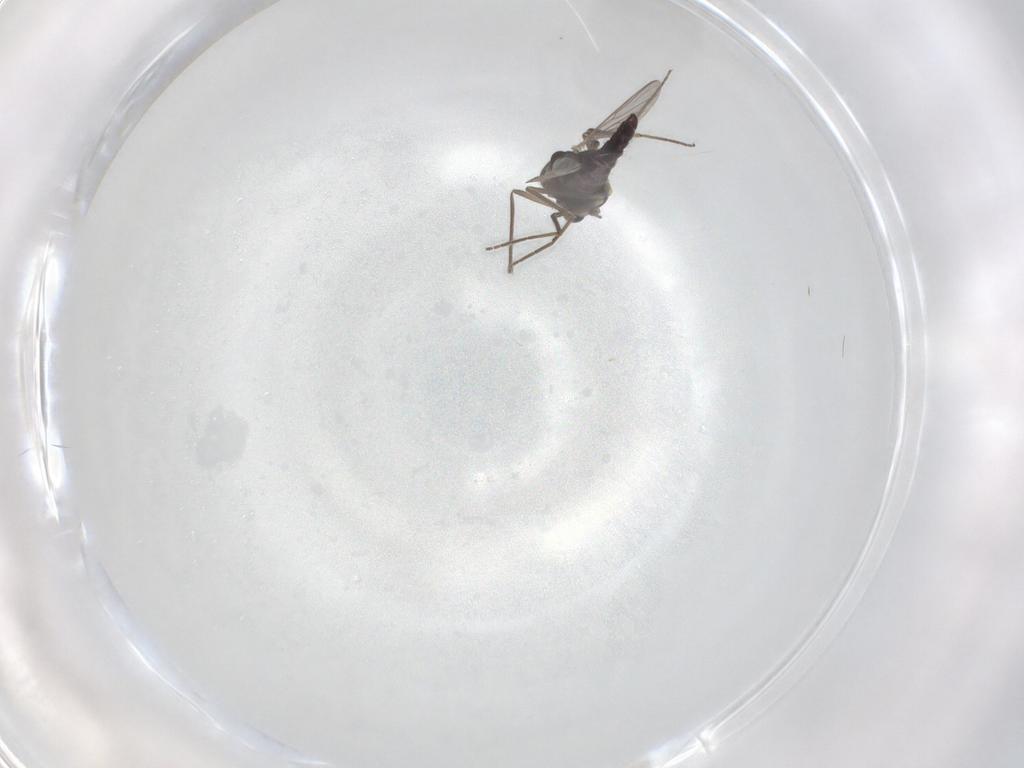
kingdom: Animalia
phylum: Arthropoda
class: Insecta
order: Diptera
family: Chironomidae
